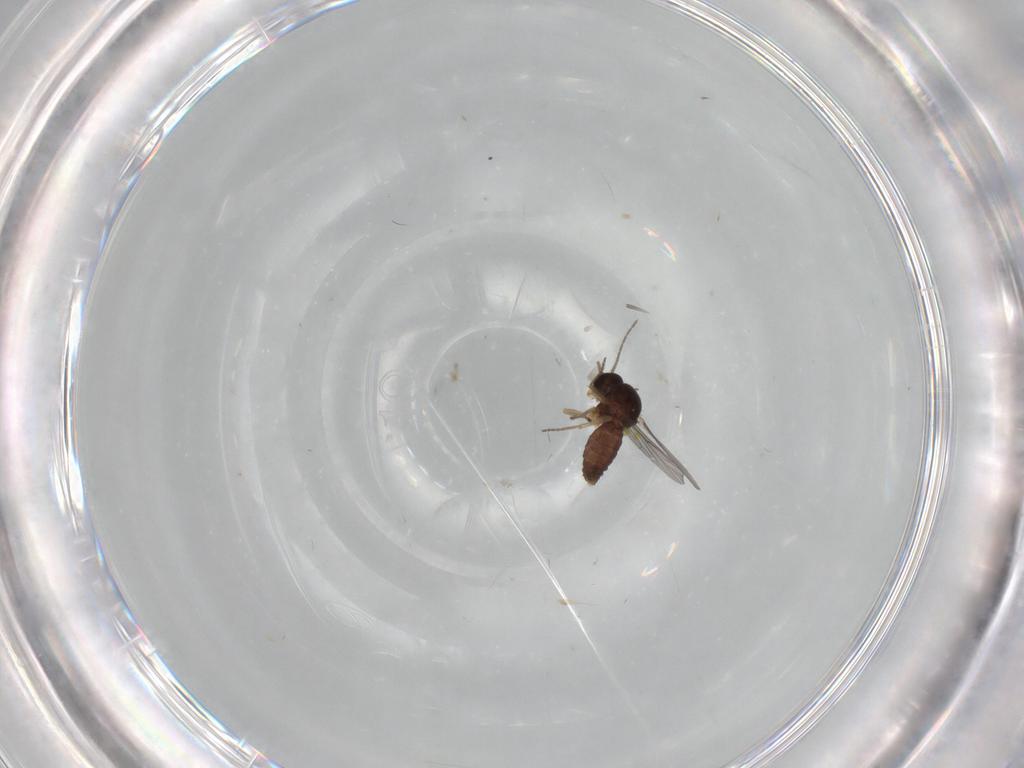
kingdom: Animalia
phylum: Arthropoda
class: Insecta
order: Diptera
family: Ceratopogonidae
